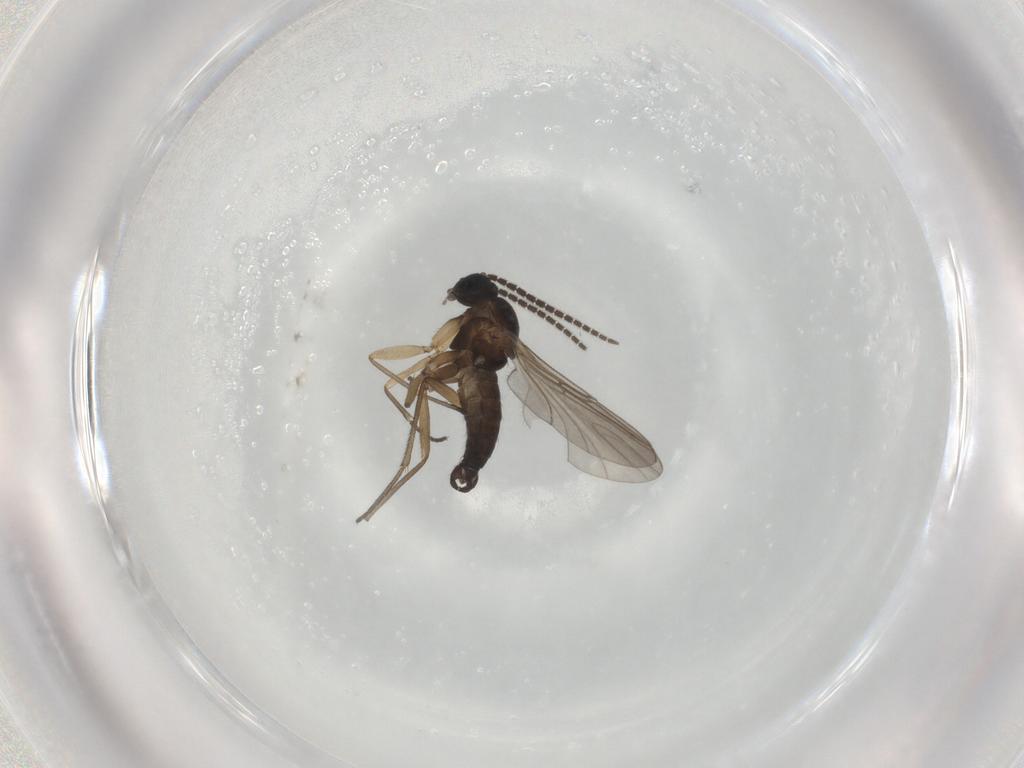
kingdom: Animalia
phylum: Arthropoda
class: Insecta
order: Diptera
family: Sciaridae
